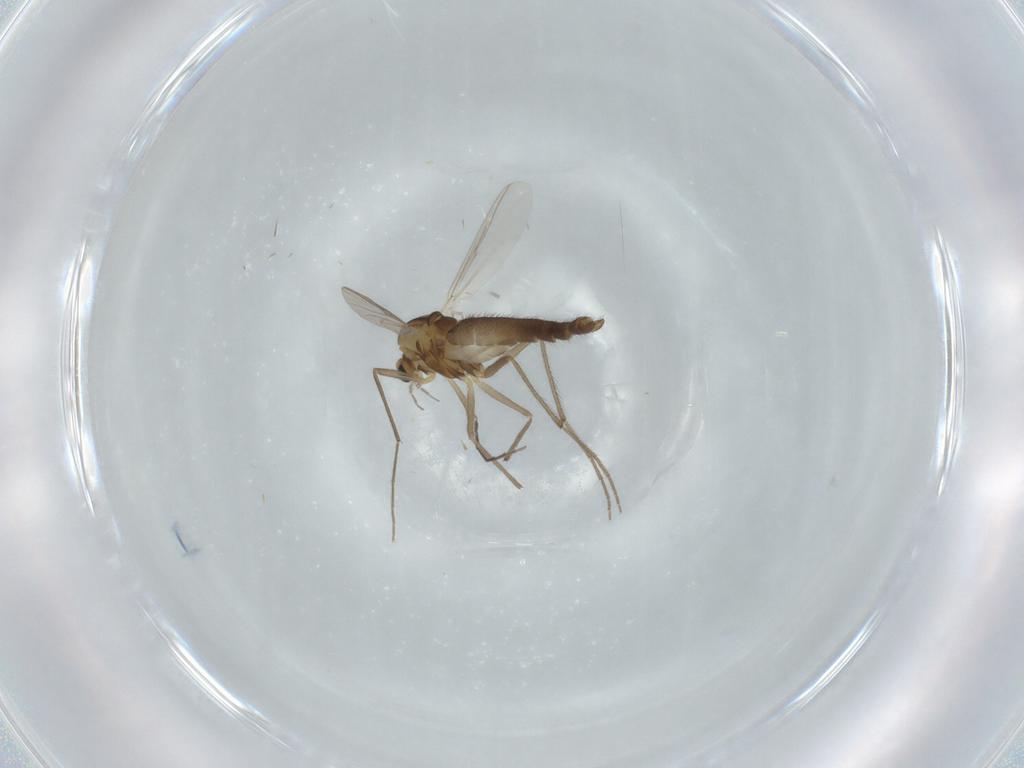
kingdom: Animalia
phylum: Arthropoda
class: Insecta
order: Diptera
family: Chironomidae
